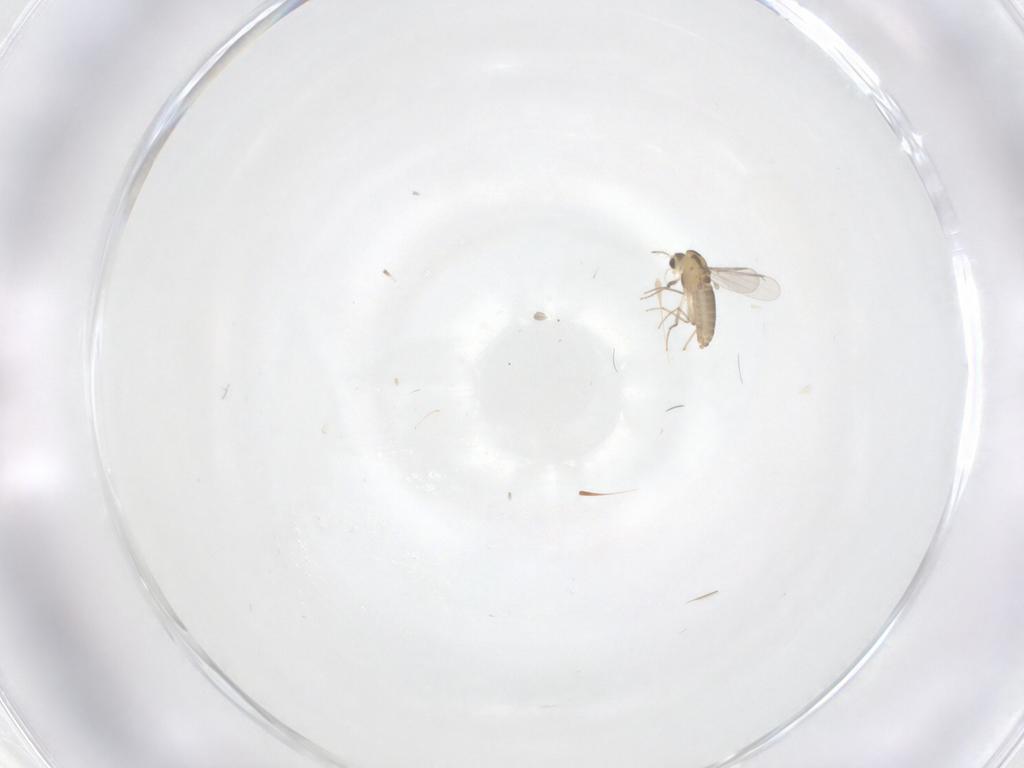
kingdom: Animalia
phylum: Arthropoda
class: Insecta
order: Diptera
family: Chironomidae
